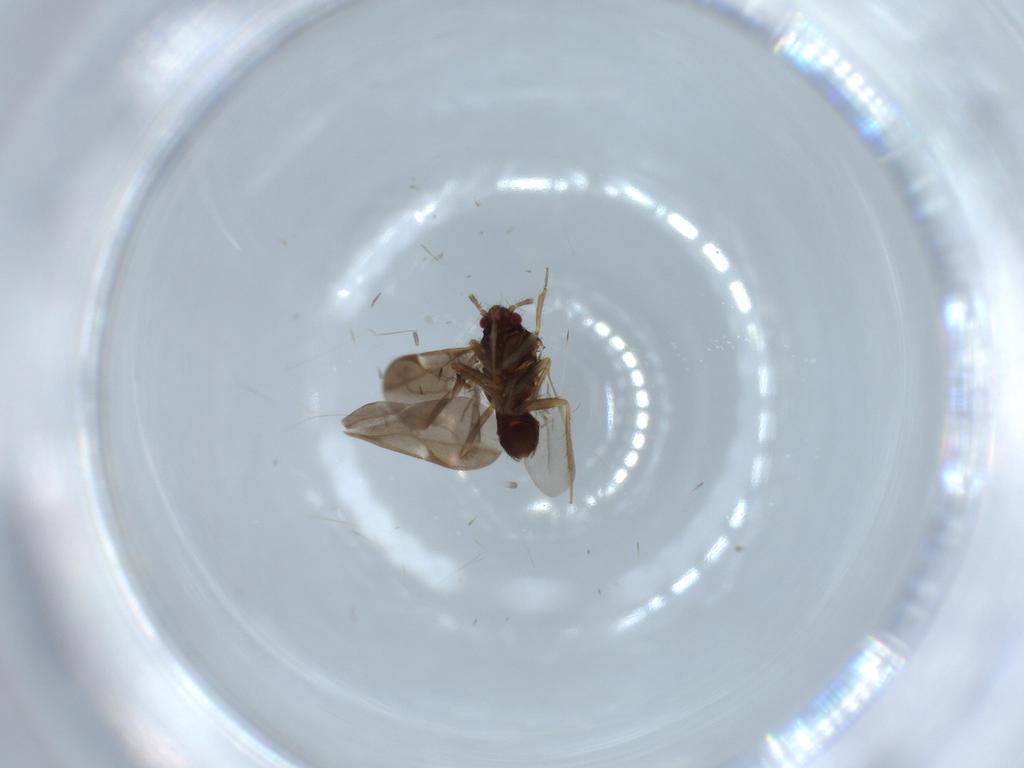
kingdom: Animalia
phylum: Arthropoda
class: Insecta
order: Hemiptera
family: Ceratocombidae
